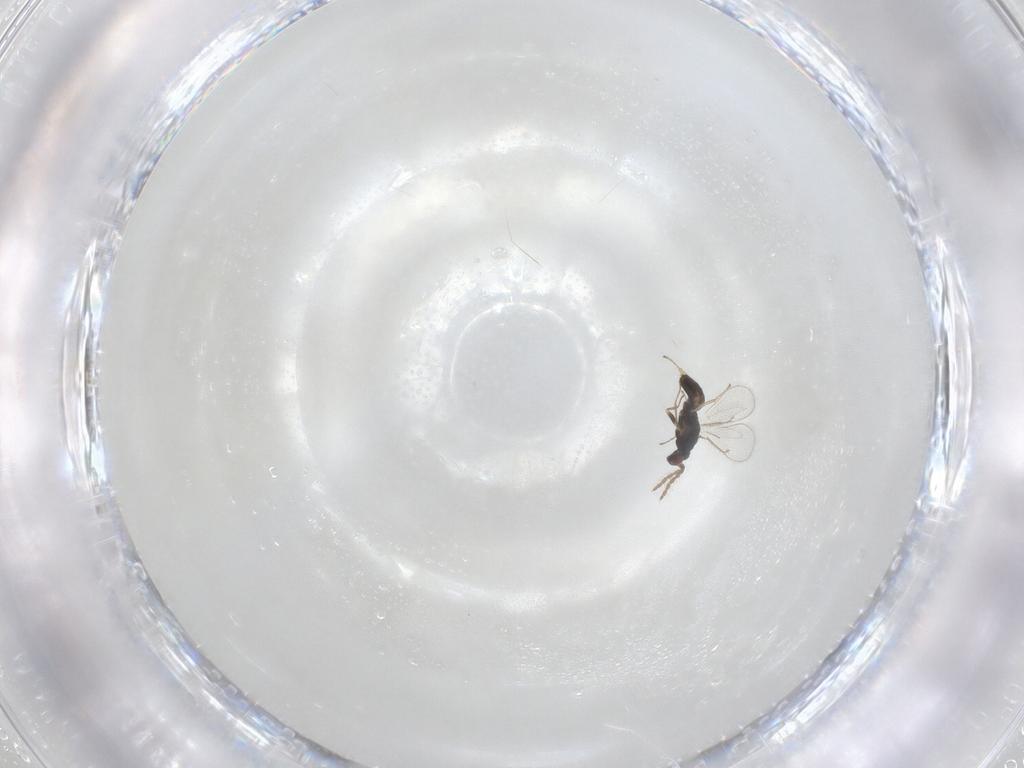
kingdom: Animalia
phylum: Arthropoda
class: Insecta
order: Hymenoptera
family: Eulophidae
